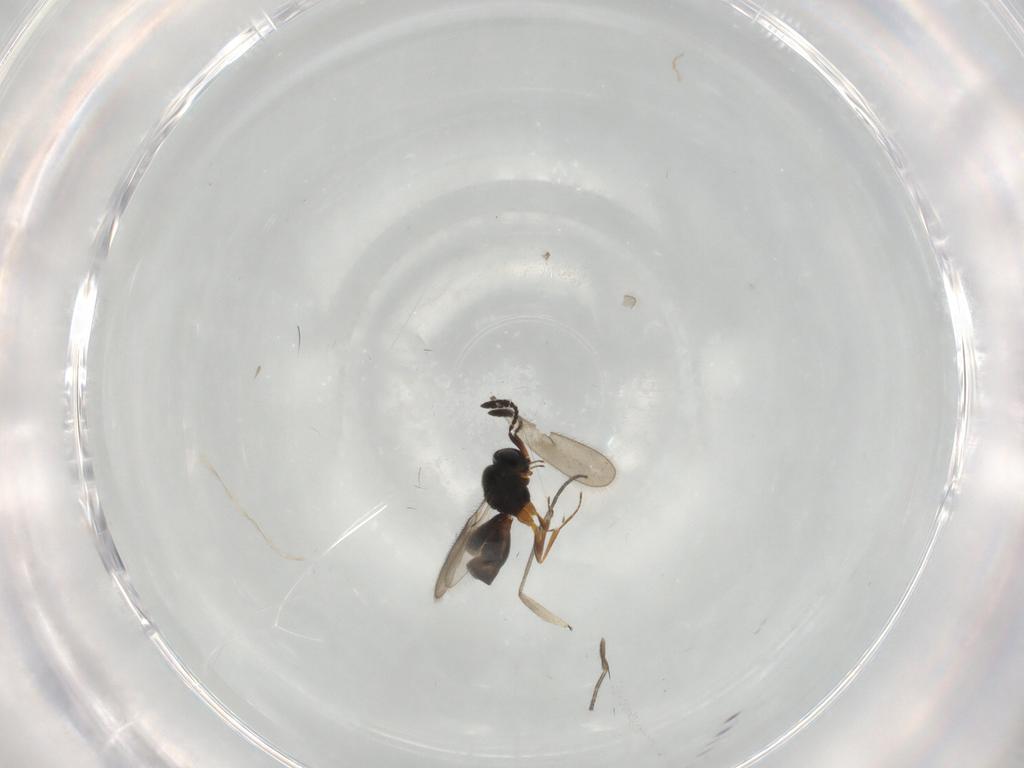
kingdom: Animalia
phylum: Arthropoda
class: Insecta
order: Hymenoptera
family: Scelionidae
